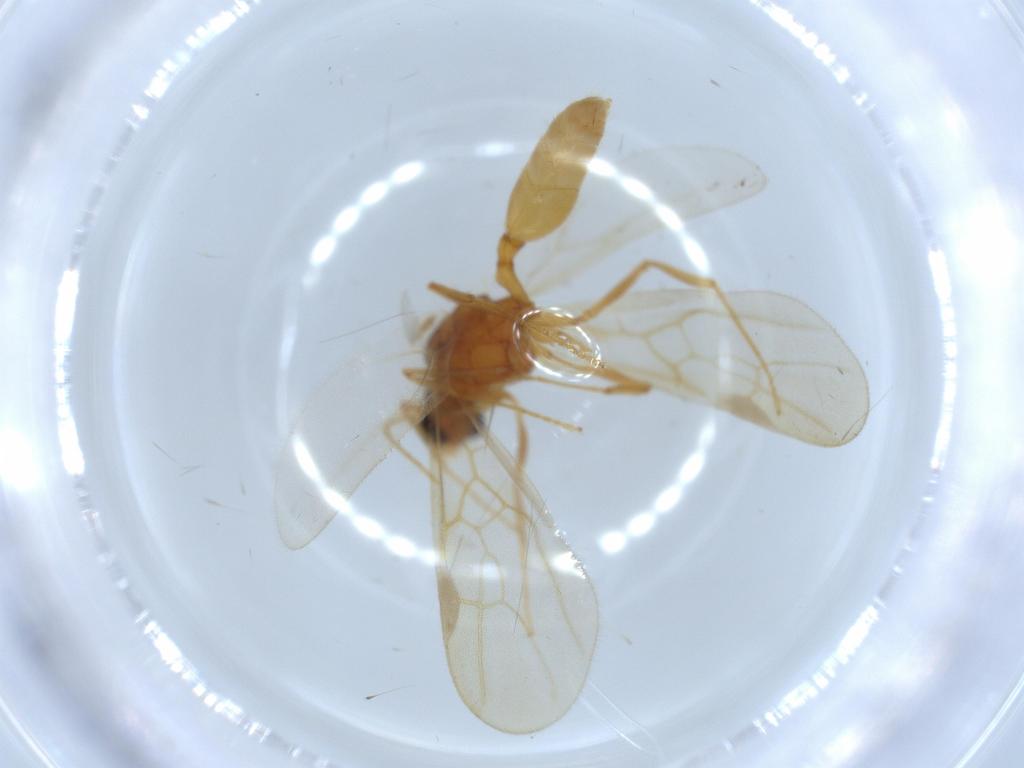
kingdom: Animalia
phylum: Arthropoda
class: Insecta
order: Hymenoptera
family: Formicidae
